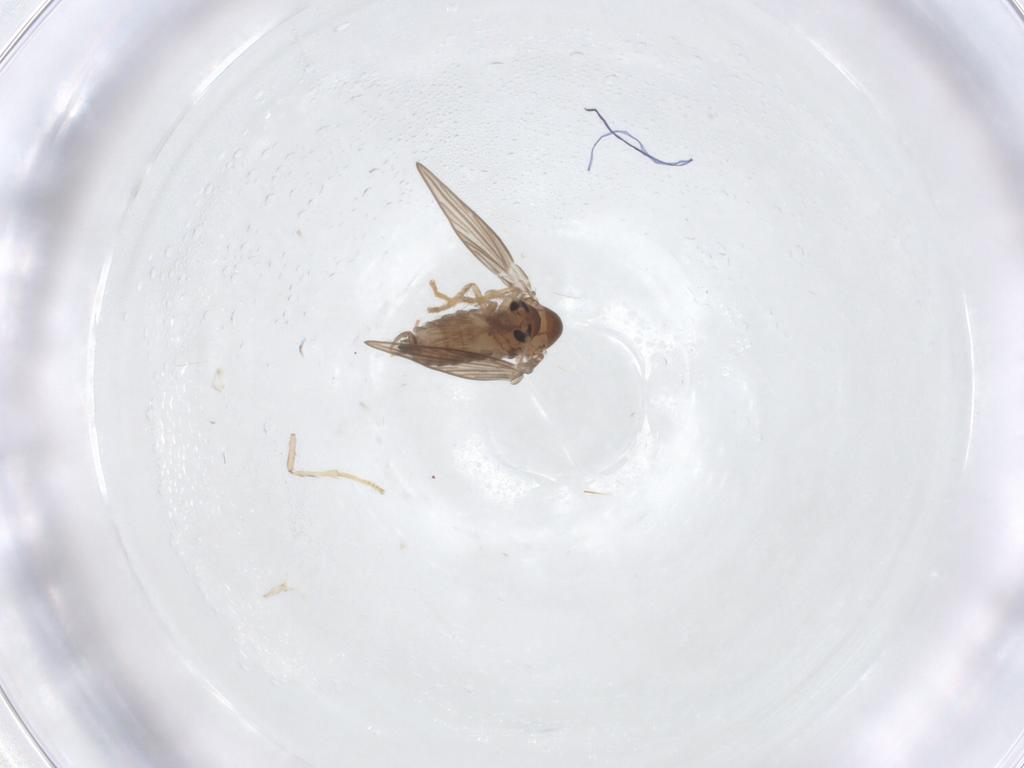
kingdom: Animalia
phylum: Arthropoda
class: Insecta
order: Diptera
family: Psychodidae
